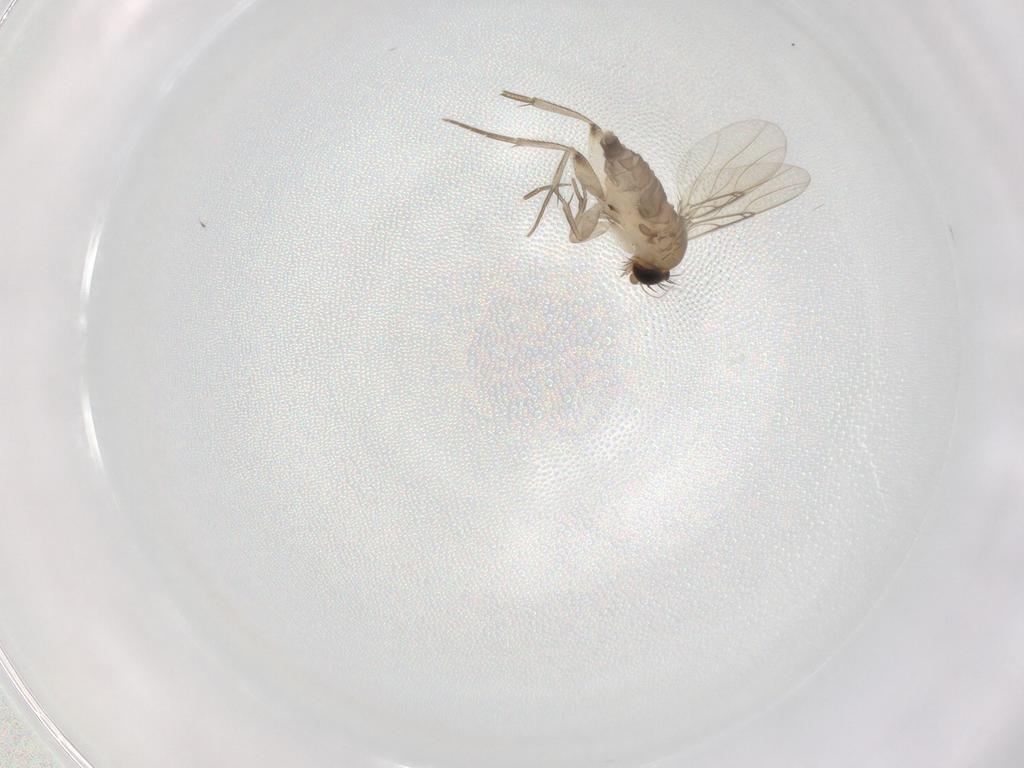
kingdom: Animalia
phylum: Arthropoda
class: Insecta
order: Diptera
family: Phoridae
